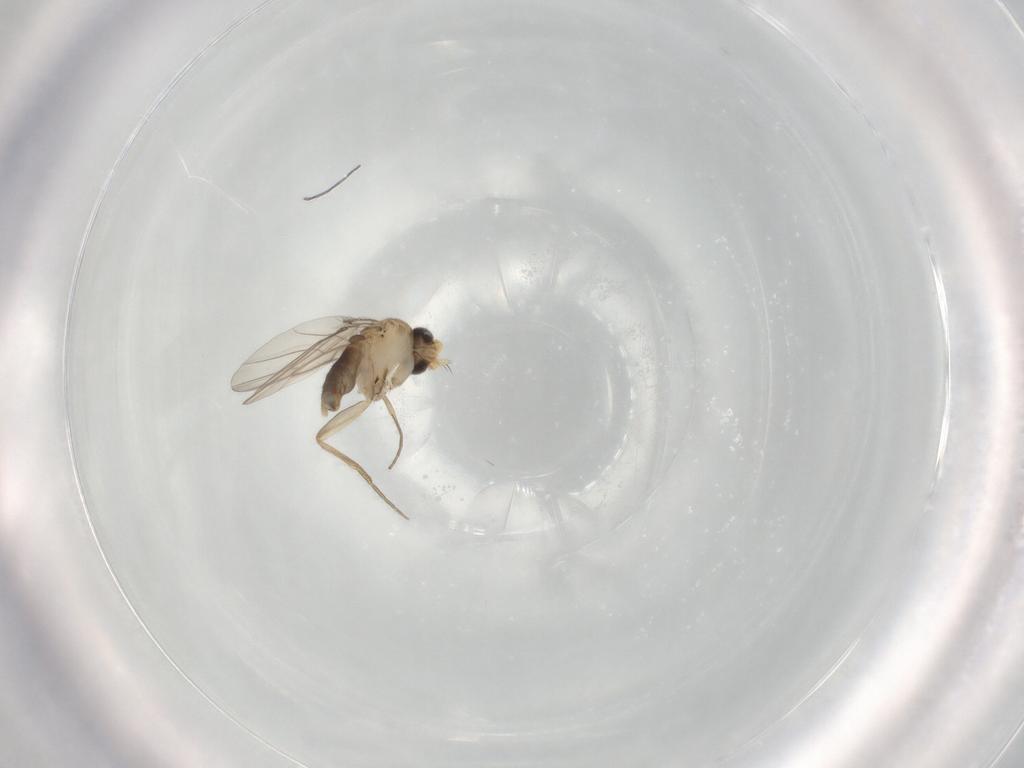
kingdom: Animalia
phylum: Arthropoda
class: Insecta
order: Diptera
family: Phoridae
